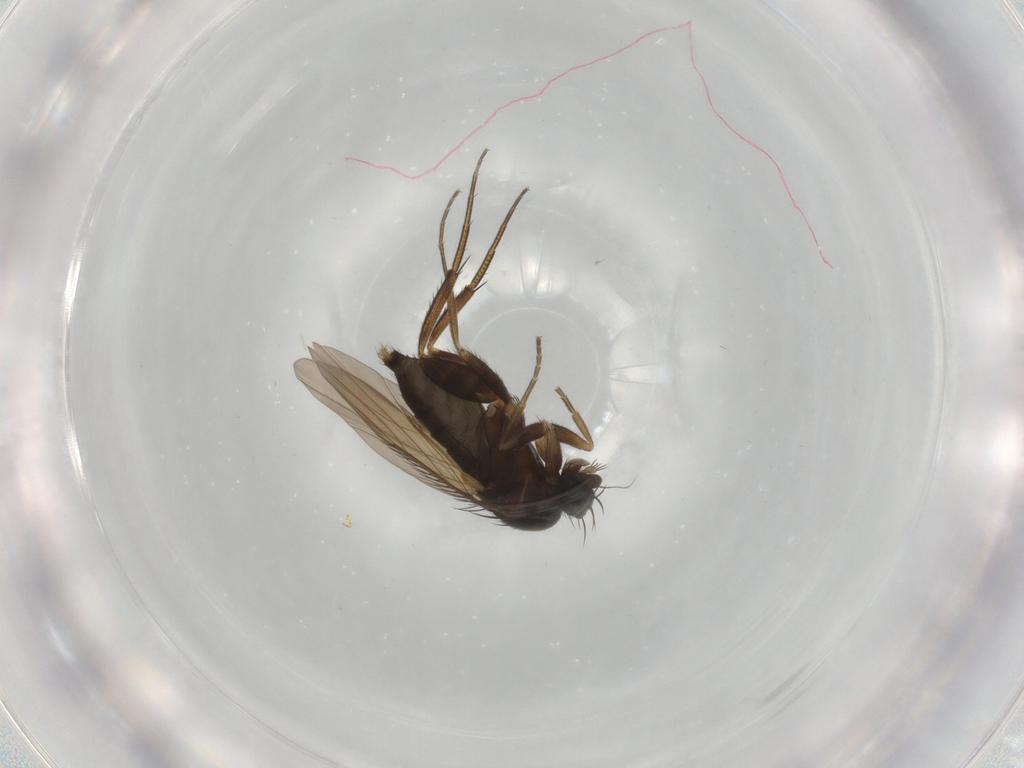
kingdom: Animalia
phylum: Arthropoda
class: Insecta
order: Diptera
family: Phoridae
